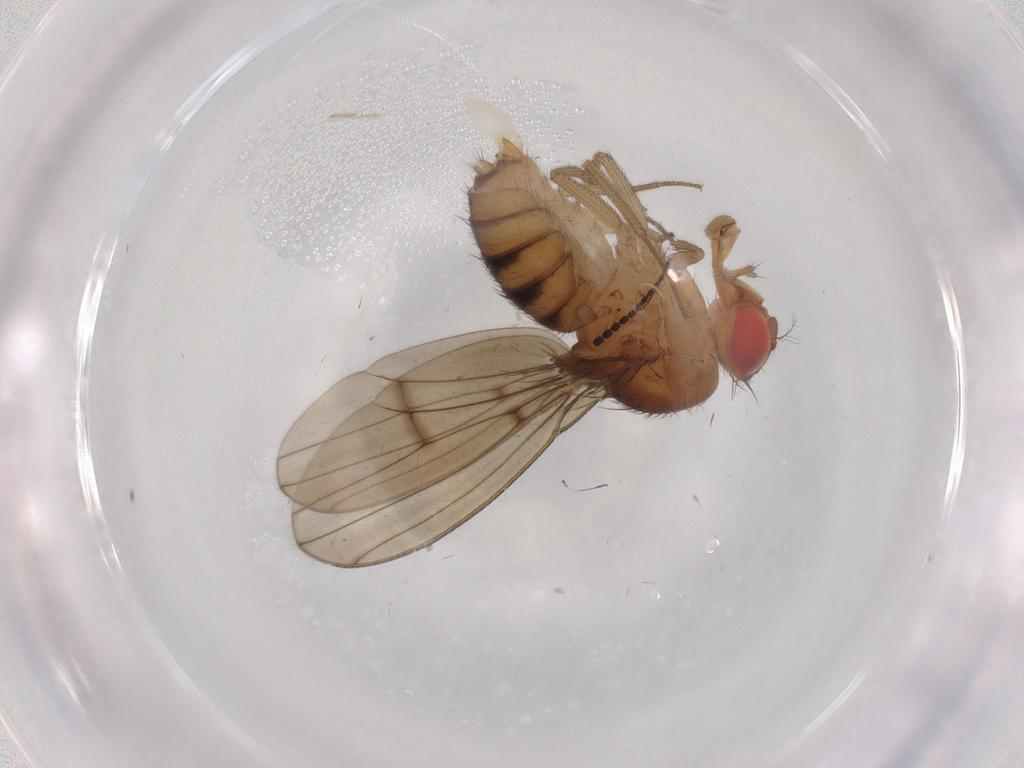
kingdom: Animalia
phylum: Arthropoda
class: Insecta
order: Diptera
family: Drosophilidae
